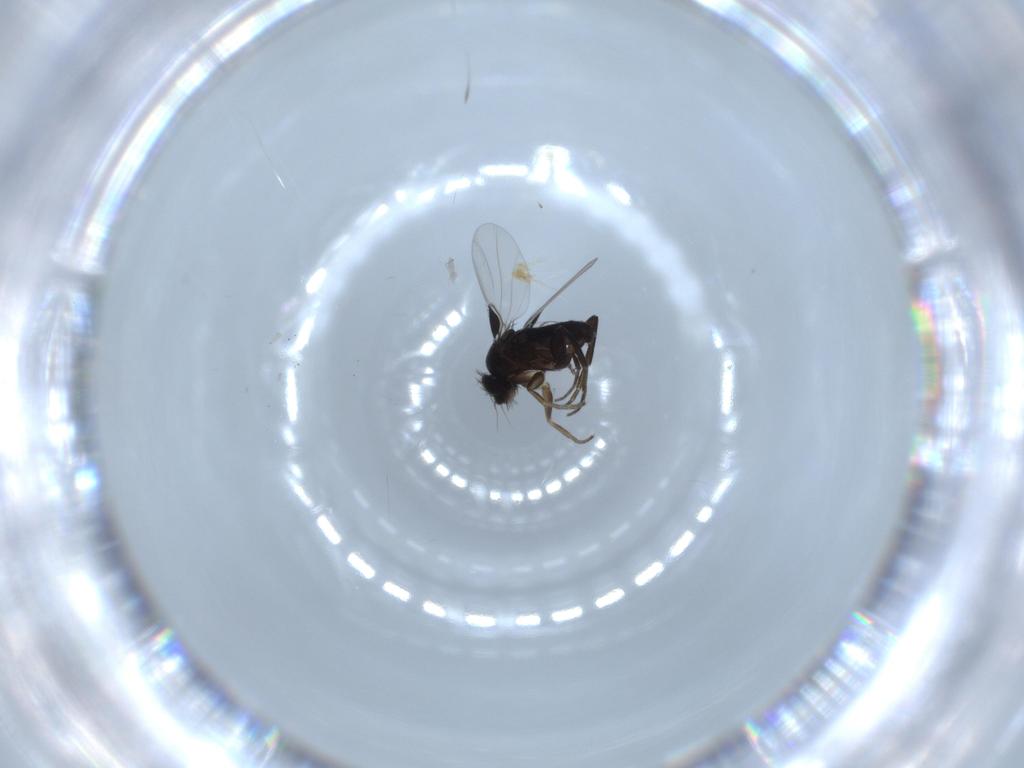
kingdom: Animalia
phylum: Arthropoda
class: Insecta
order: Diptera
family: Phoridae
